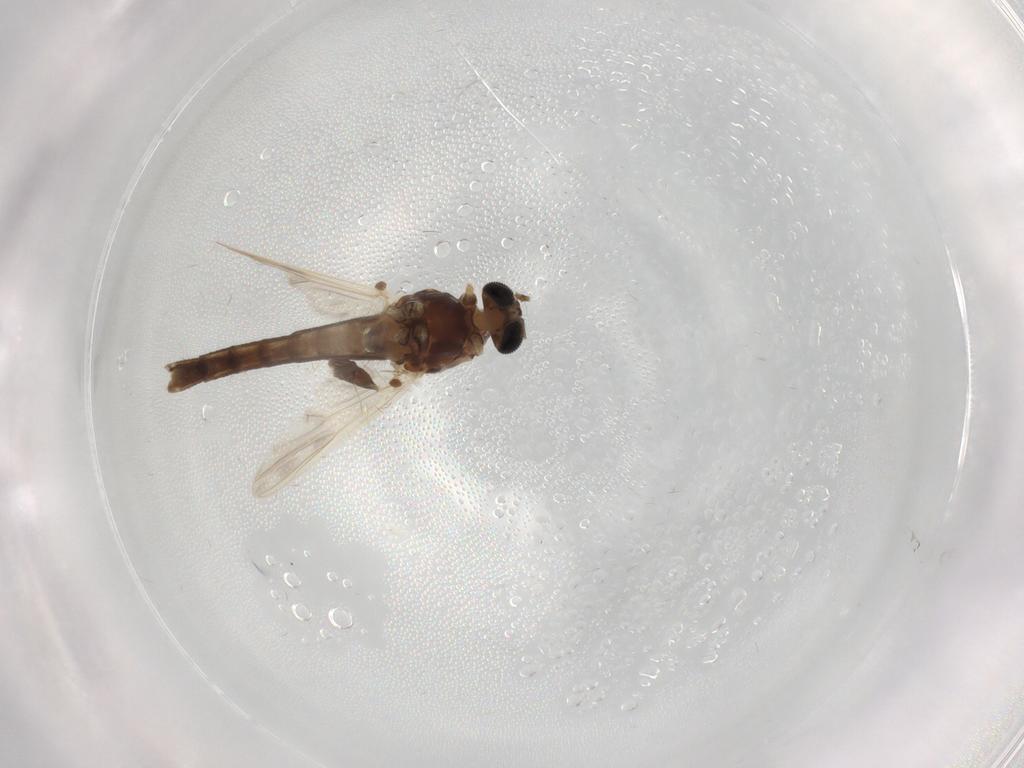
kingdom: Animalia
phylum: Arthropoda
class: Insecta
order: Diptera
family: Chironomidae
